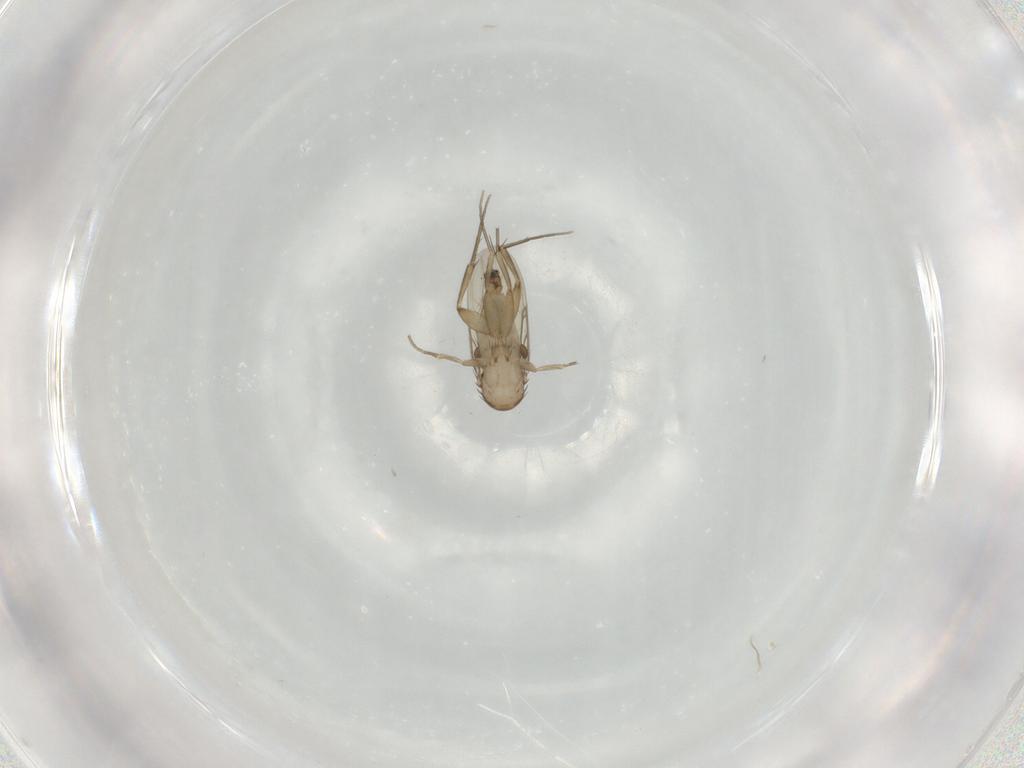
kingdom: Animalia
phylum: Arthropoda
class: Insecta
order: Diptera
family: Phoridae
